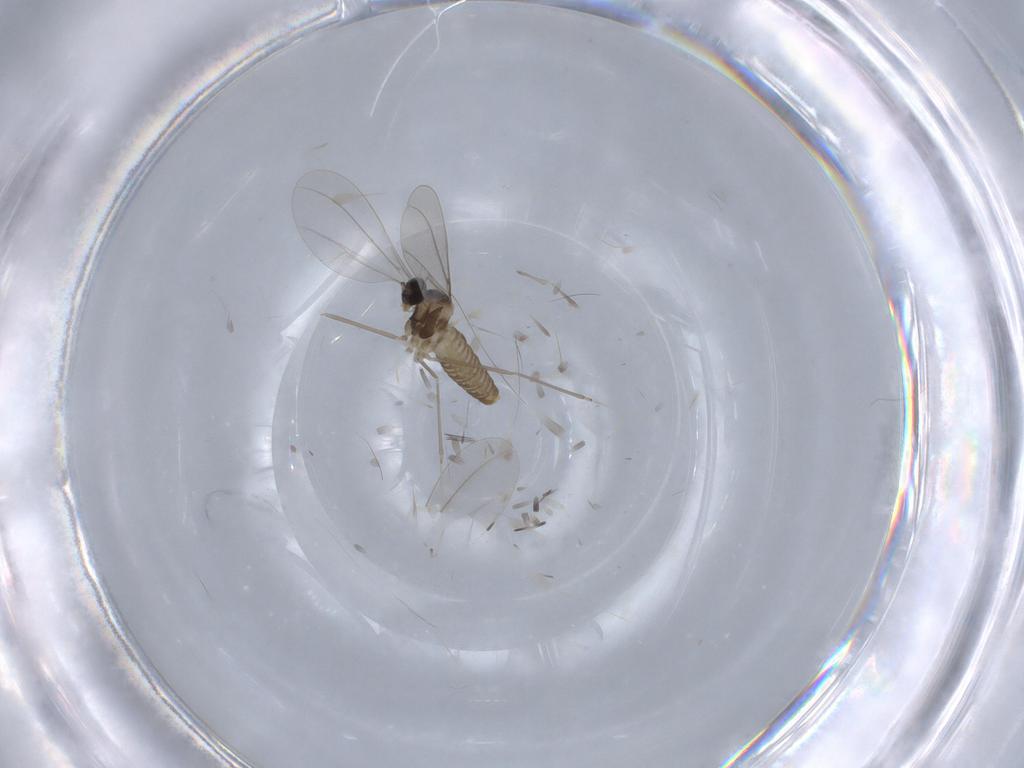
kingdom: Animalia
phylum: Arthropoda
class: Insecta
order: Diptera
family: Cecidomyiidae
